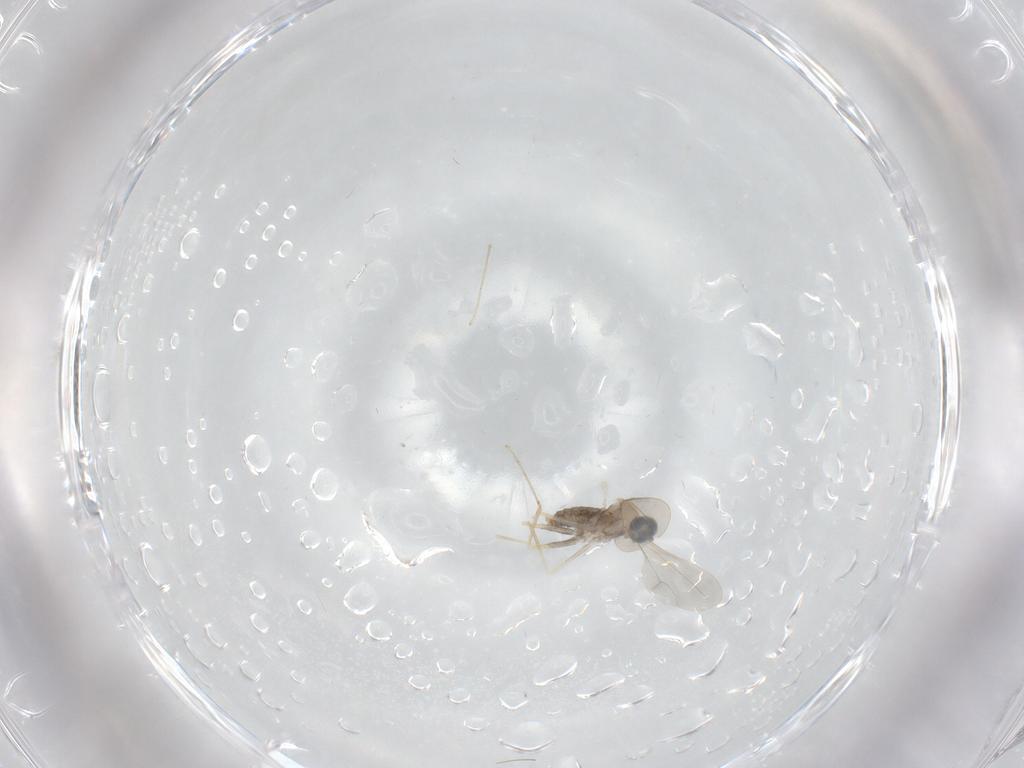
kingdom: Animalia
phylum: Arthropoda
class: Insecta
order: Diptera
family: Cecidomyiidae
